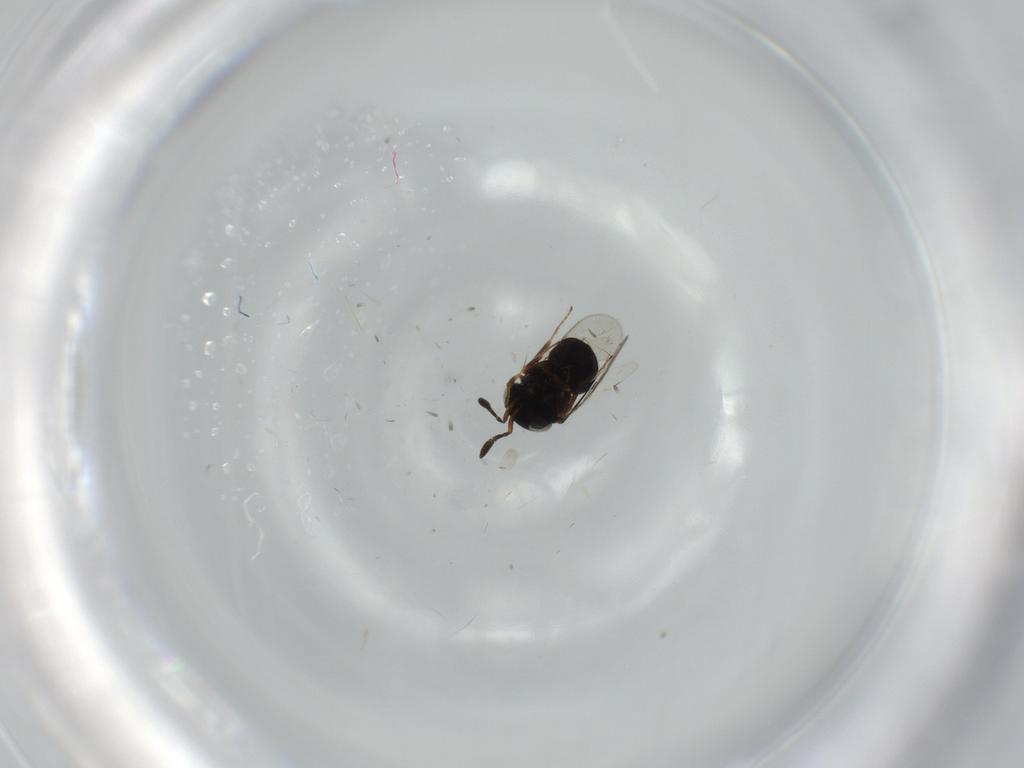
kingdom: Animalia
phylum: Arthropoda
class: Insecta
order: Hymenoptera
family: Scelionidae
